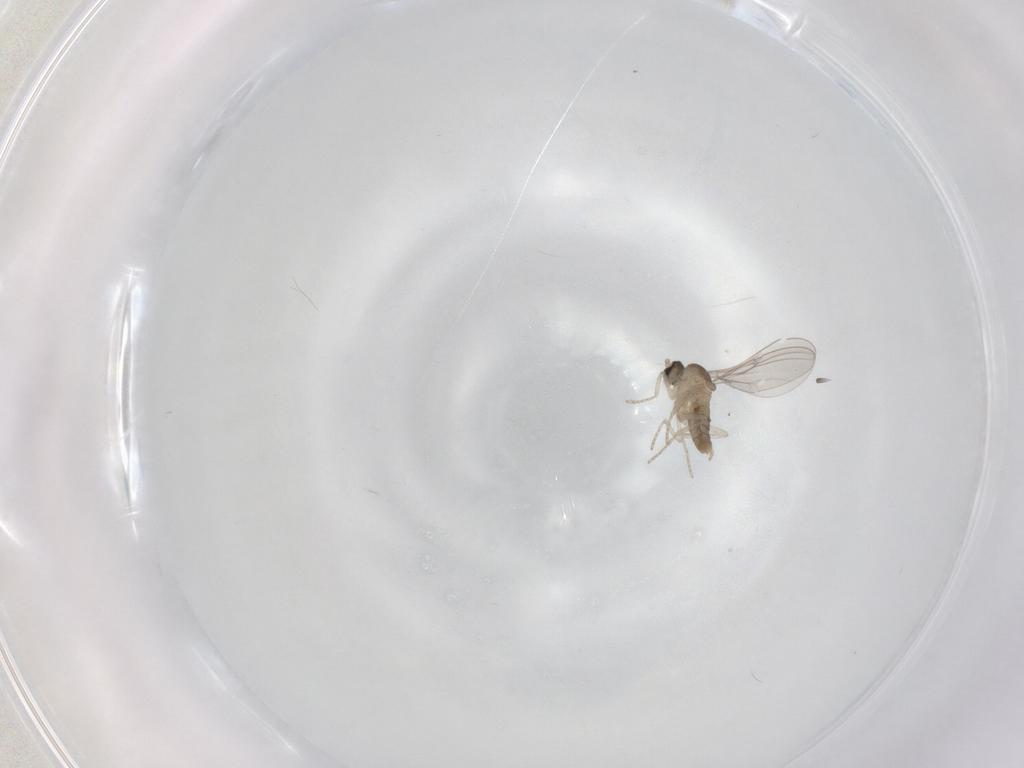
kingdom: Animalia
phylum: Arthropoda
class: Insecta
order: Diptera
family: Cecidomyiidae
